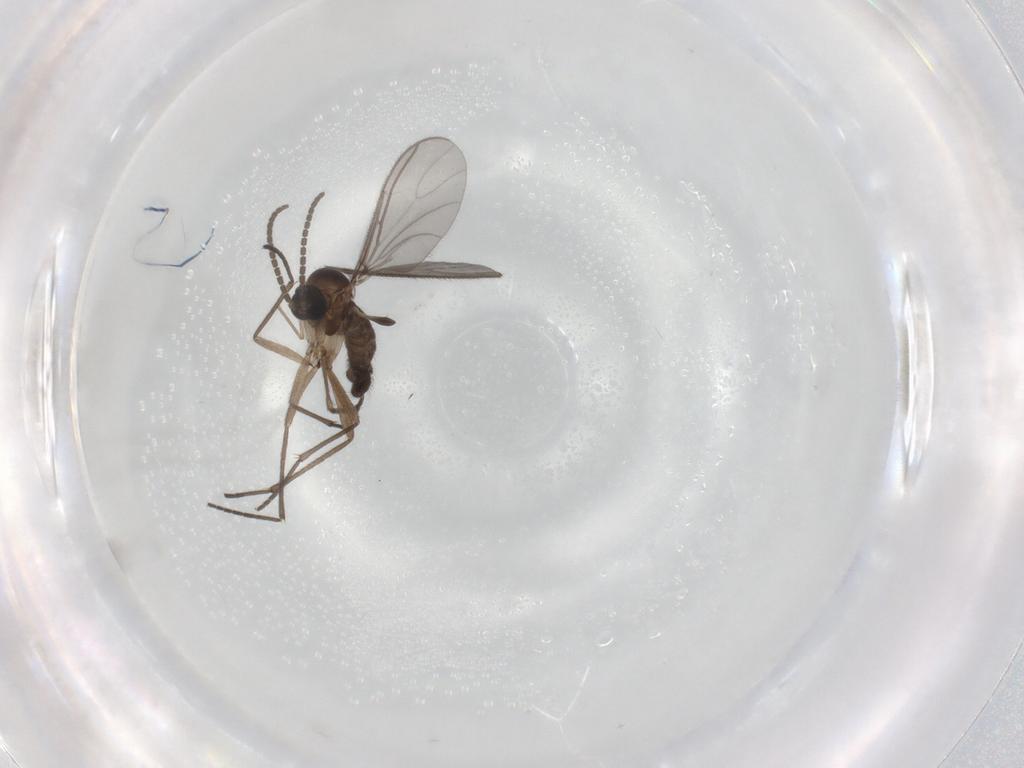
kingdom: Animalia
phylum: Arthropoda
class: Insecta
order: Diptera
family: Sciaridae
